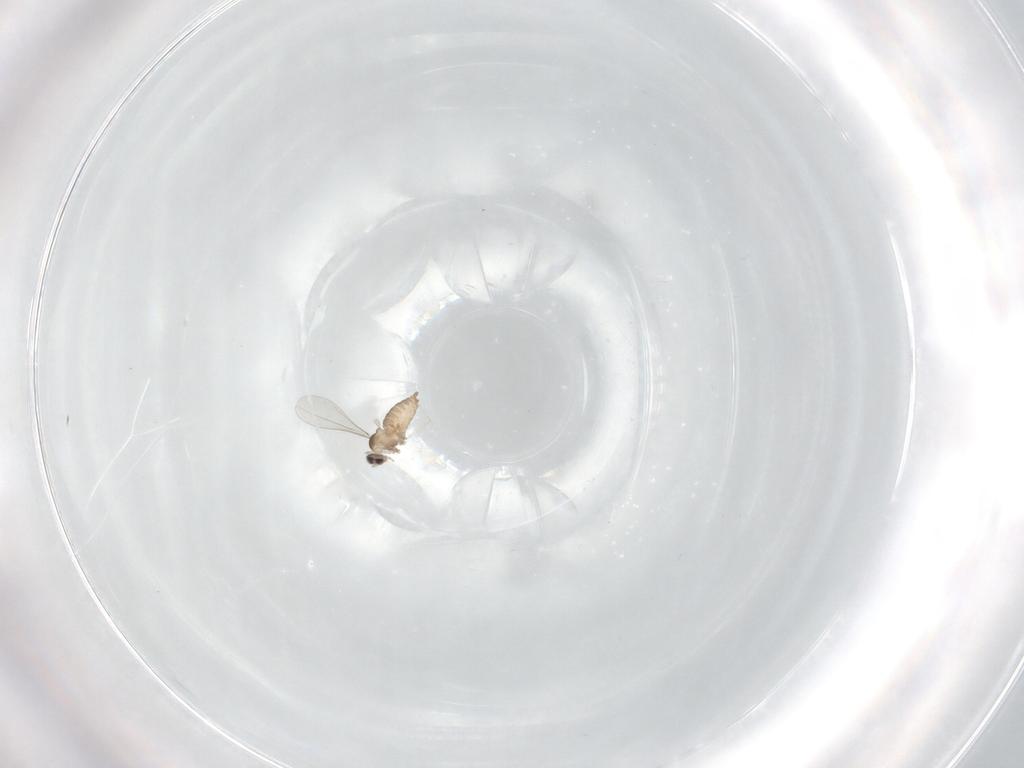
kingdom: Animalia
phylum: Arthropoda
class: Insecta
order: Diptera
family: Cecidomyiidae
